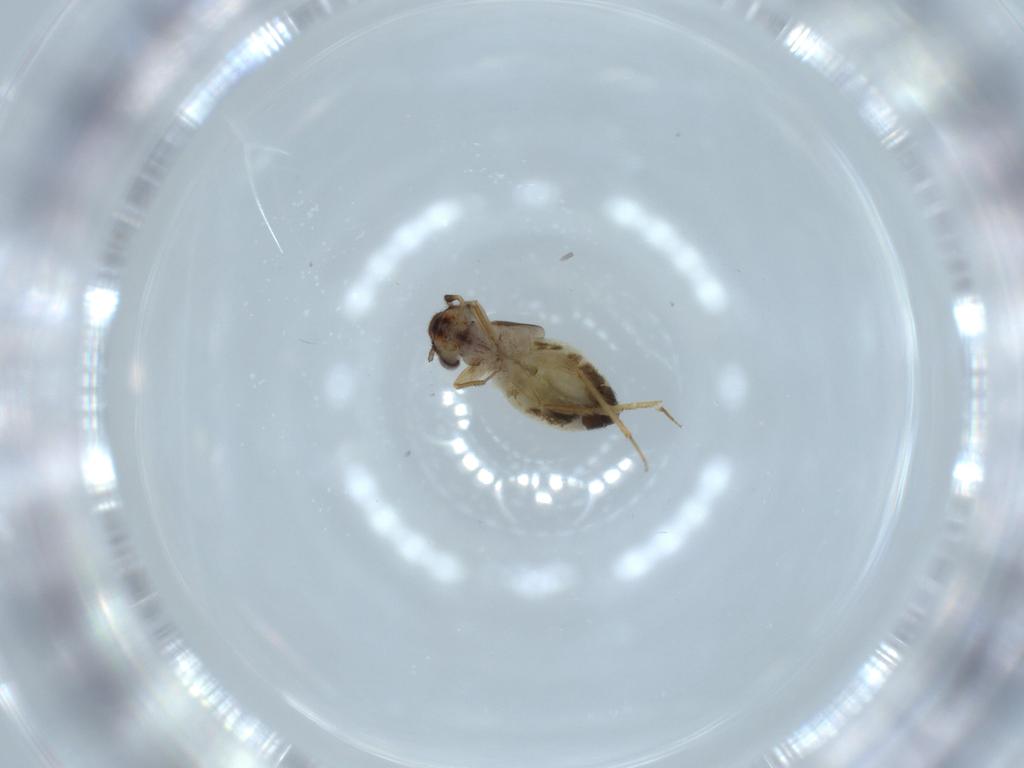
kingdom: Animalia
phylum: Arthropoda
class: Insecta
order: Psocodea
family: Lepidopsocidae
